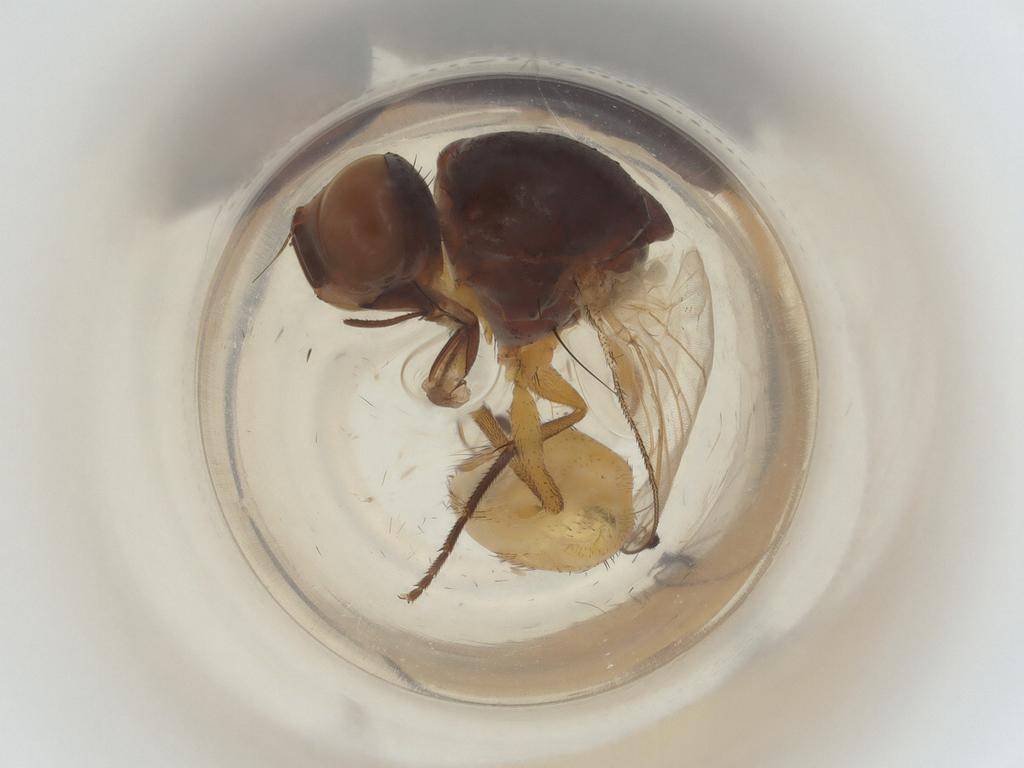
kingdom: Animalia
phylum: Arthropoda
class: Insecta
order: Diptera
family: Muscidae
